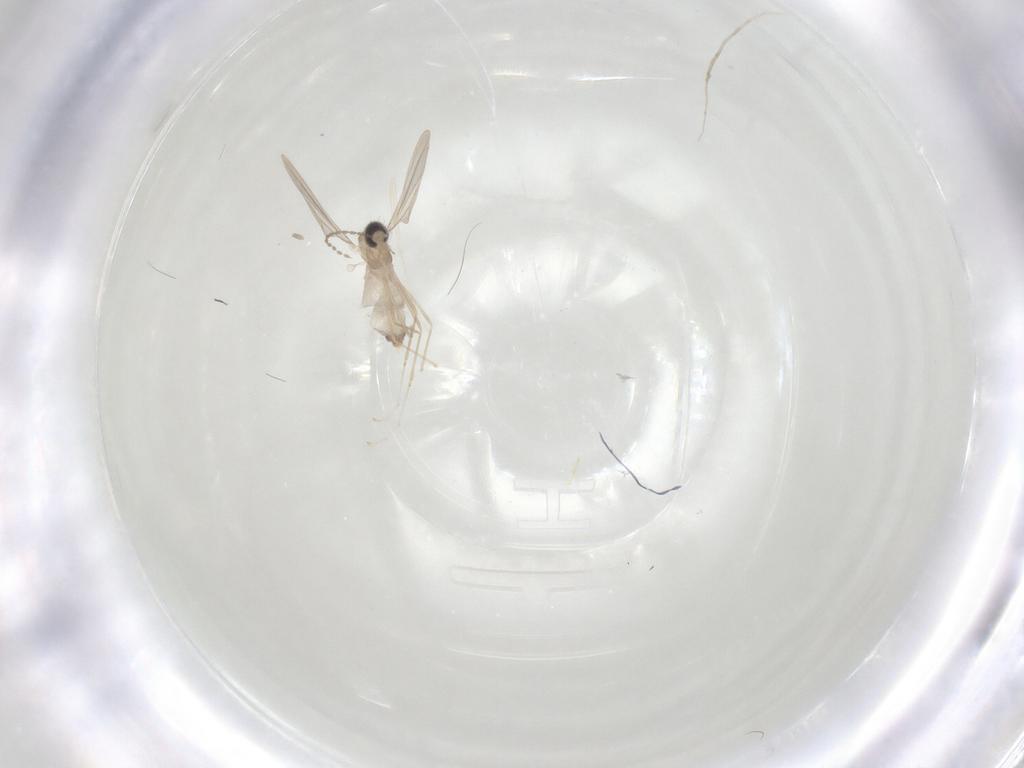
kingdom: Animalia
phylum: Arthropoda
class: Insecta
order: Diptera
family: Cecidomyiidae
